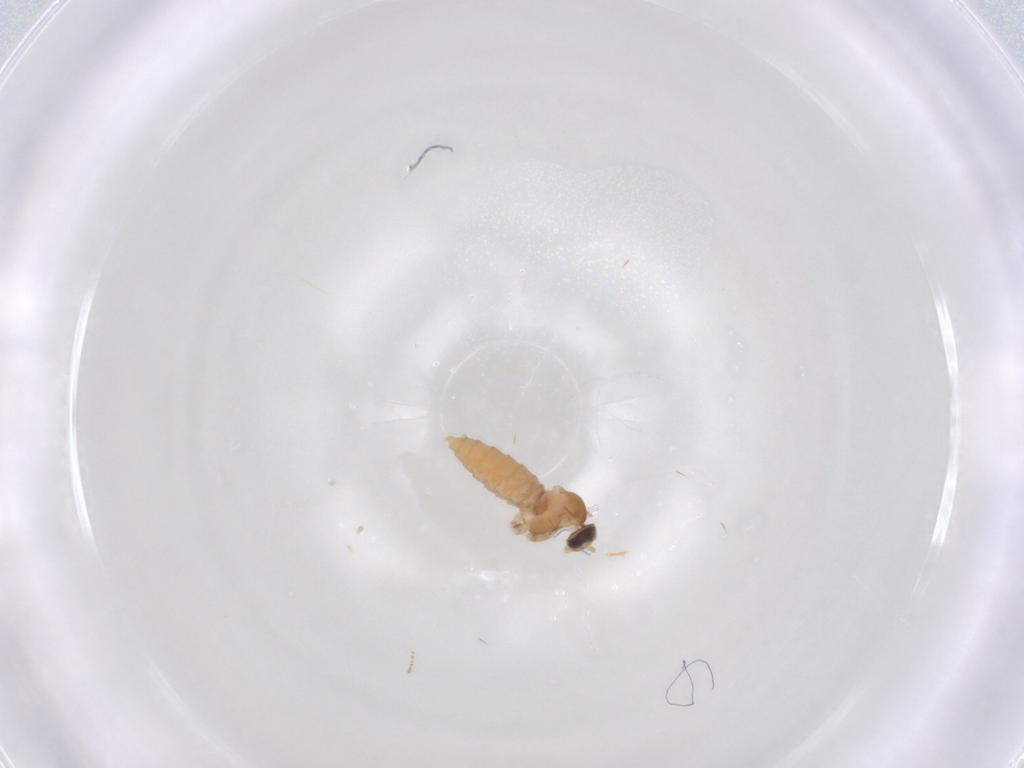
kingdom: Animalia
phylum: Arthropoda
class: Insecta
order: Diptera
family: Cecidomyiidae
